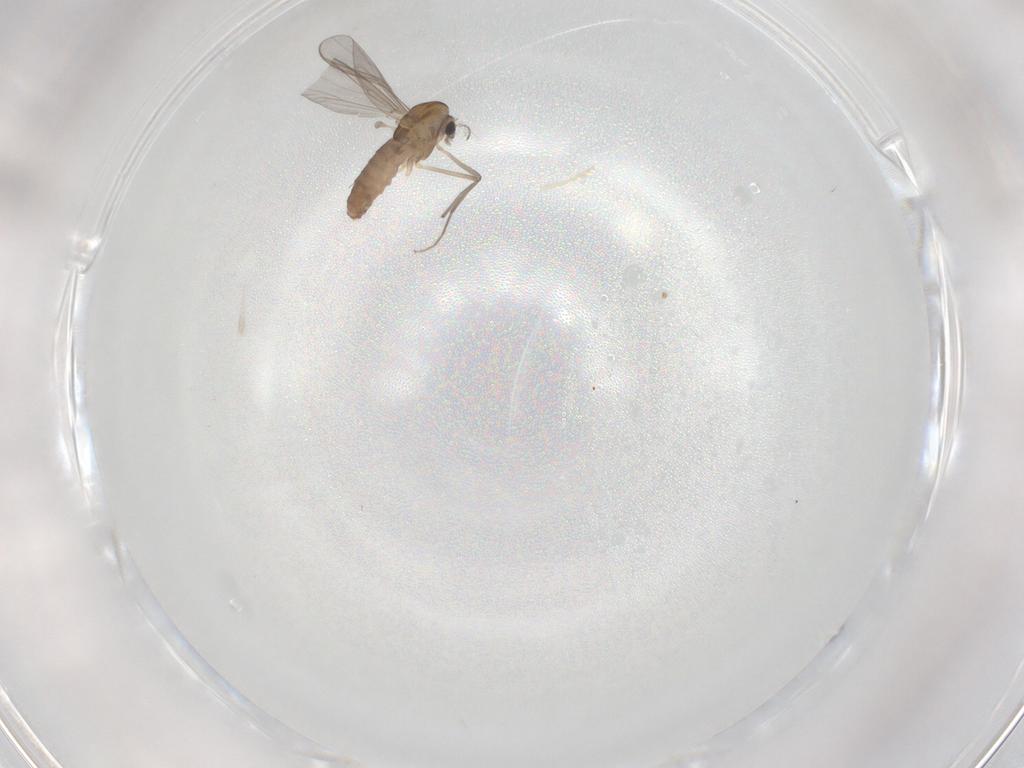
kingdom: Animalia
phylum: Arthropoda
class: Insecta
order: Diptera
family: Chironomidae
